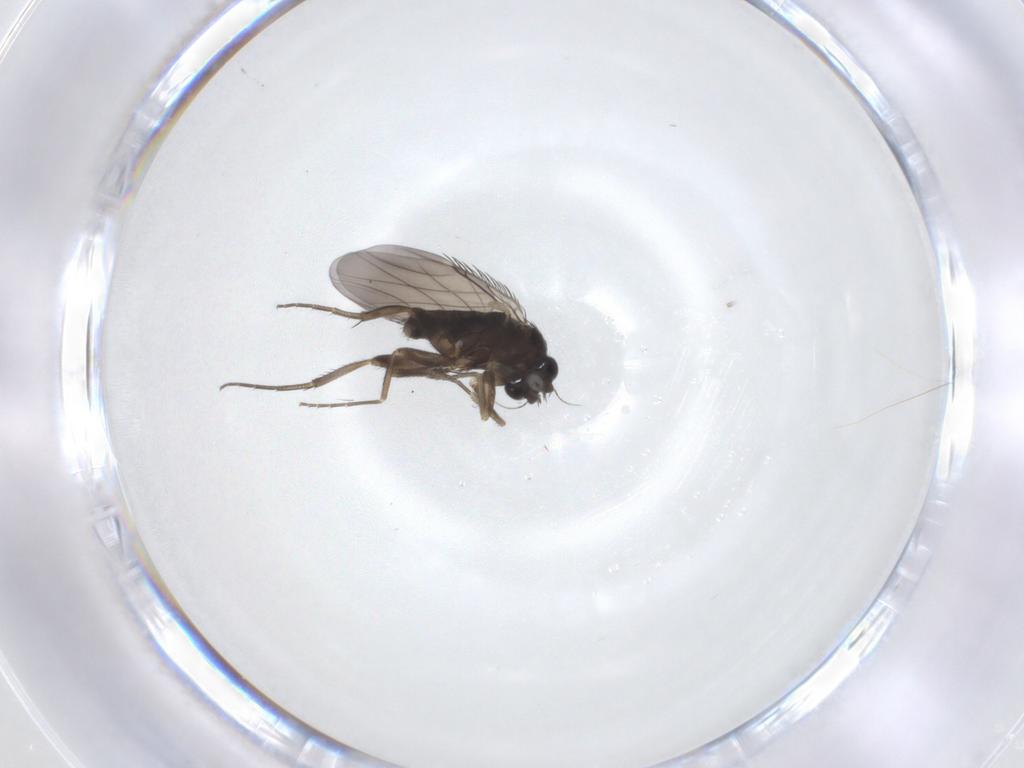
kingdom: Animalia
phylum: Arthropoda
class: Insecta
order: Diptera
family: Phoridae
